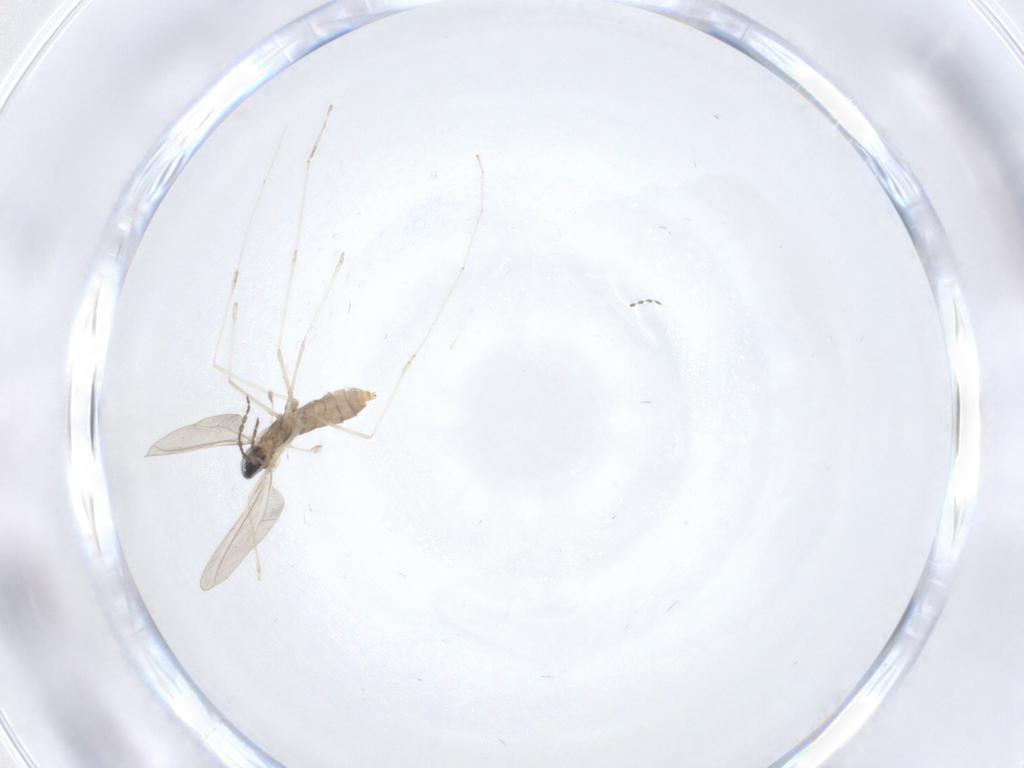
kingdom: Animalia
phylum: Arthropoda
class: Insecta
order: Diptera
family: Cecidomyiidae
